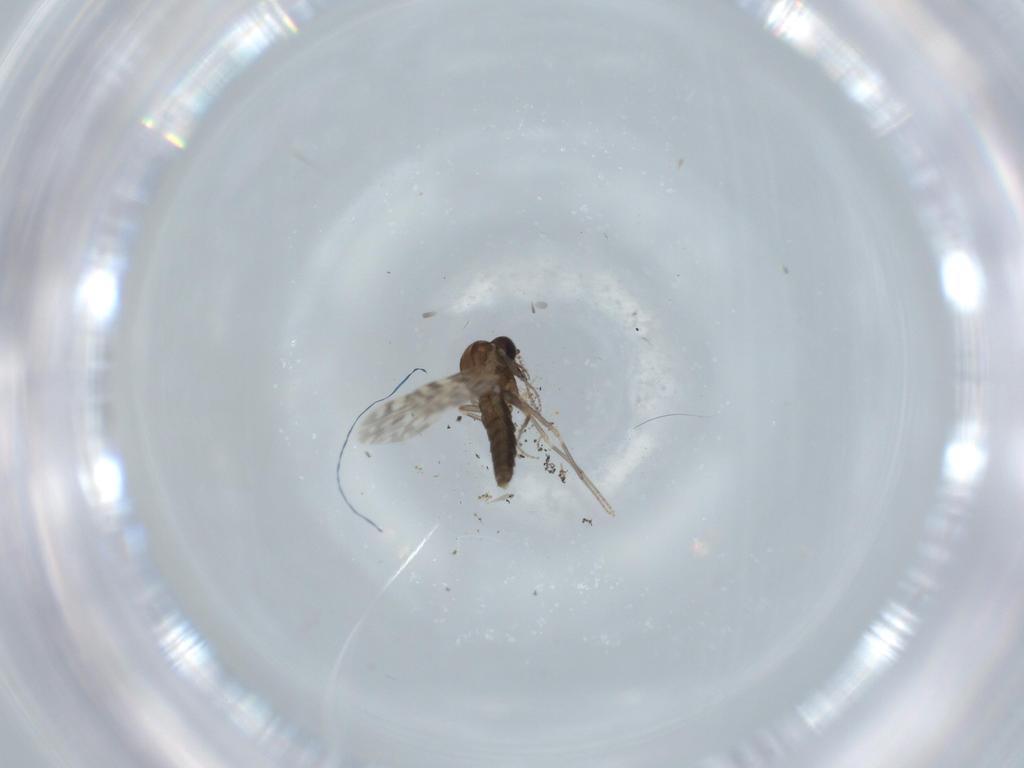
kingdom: Animalia
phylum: Arthropoda
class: Insecta
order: Diptera
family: Ceratopogonidae
